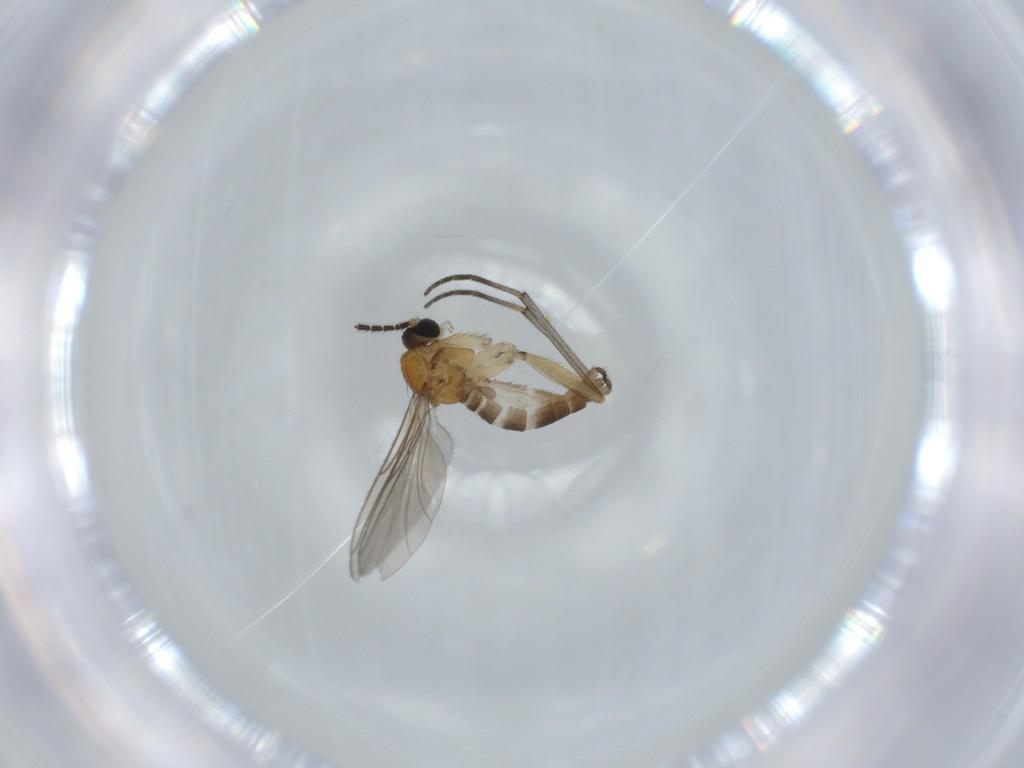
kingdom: Animalia
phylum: Arthropoda
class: Insecta
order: Diptera
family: Sciaridae
